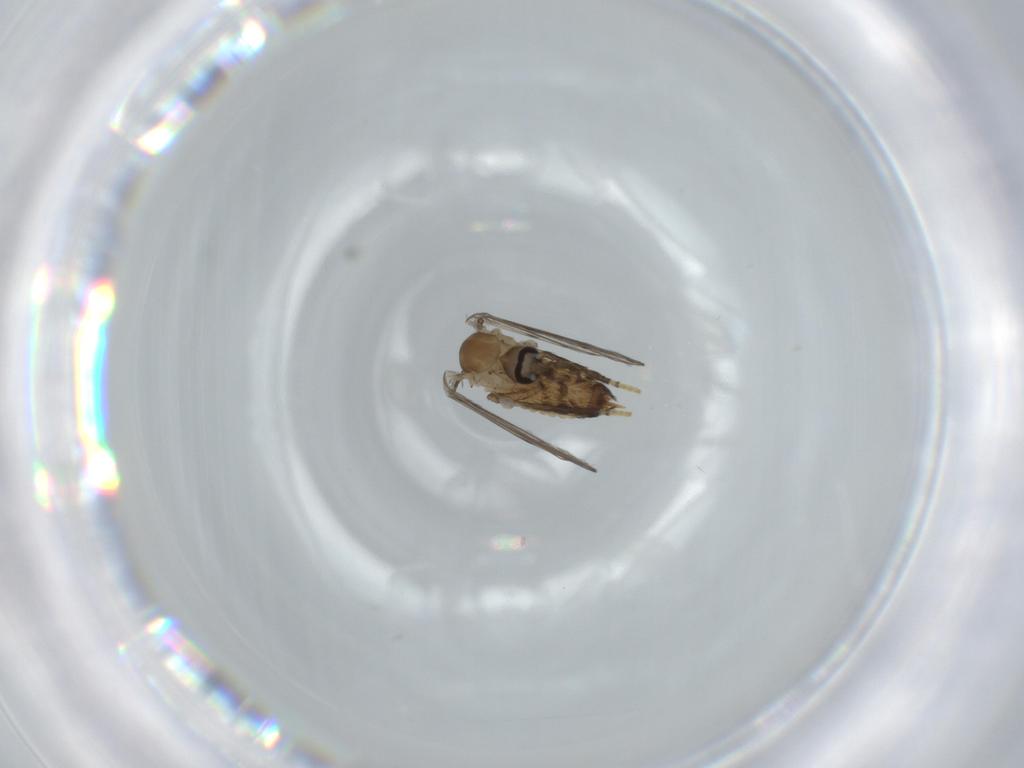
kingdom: Animalia
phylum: Arthropoda
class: Insecta
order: Diptera
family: Psychodidae
